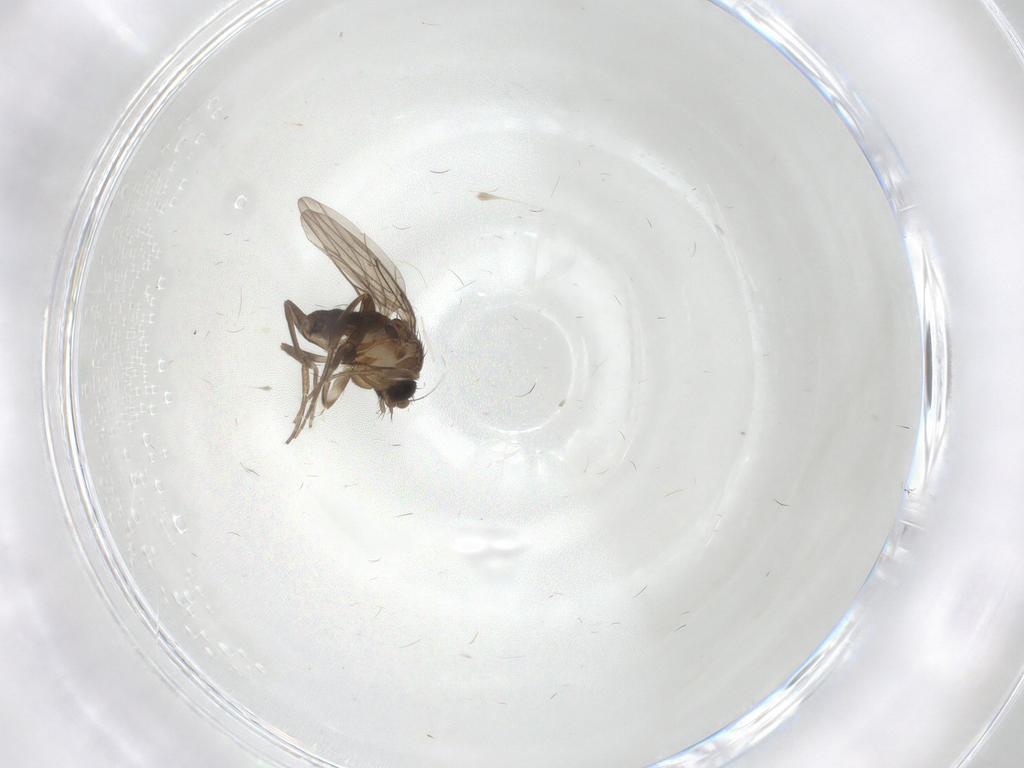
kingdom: Animalia
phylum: Arthropoda
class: Insecta
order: Diptera
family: Phoridae
